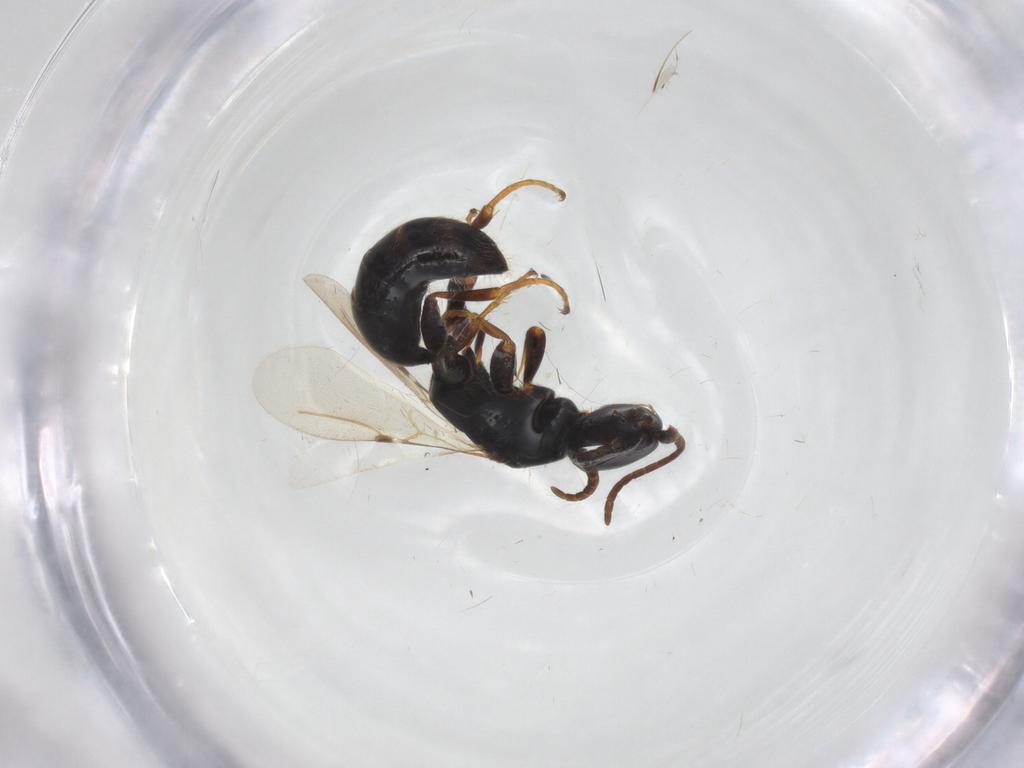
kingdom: Animalia
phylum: Arthropoda
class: Insecta
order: Hymenoptera
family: Bethylidae
